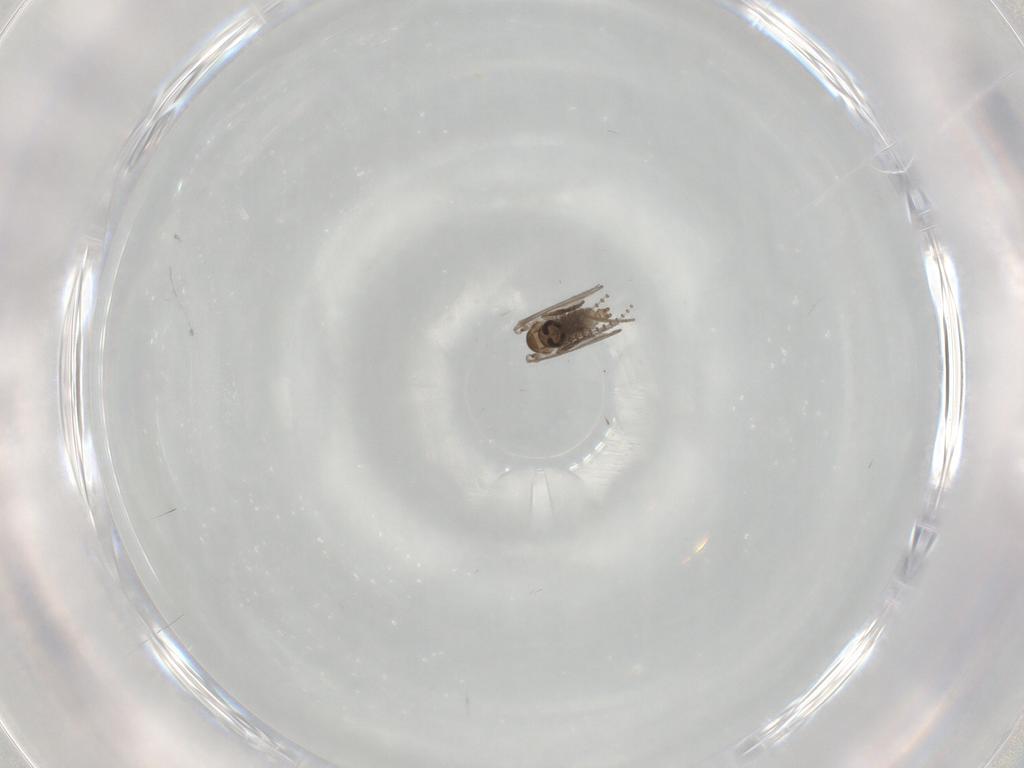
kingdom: Animalia
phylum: Arthropoda
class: Insecta
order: Diptera
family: Psychodidae
